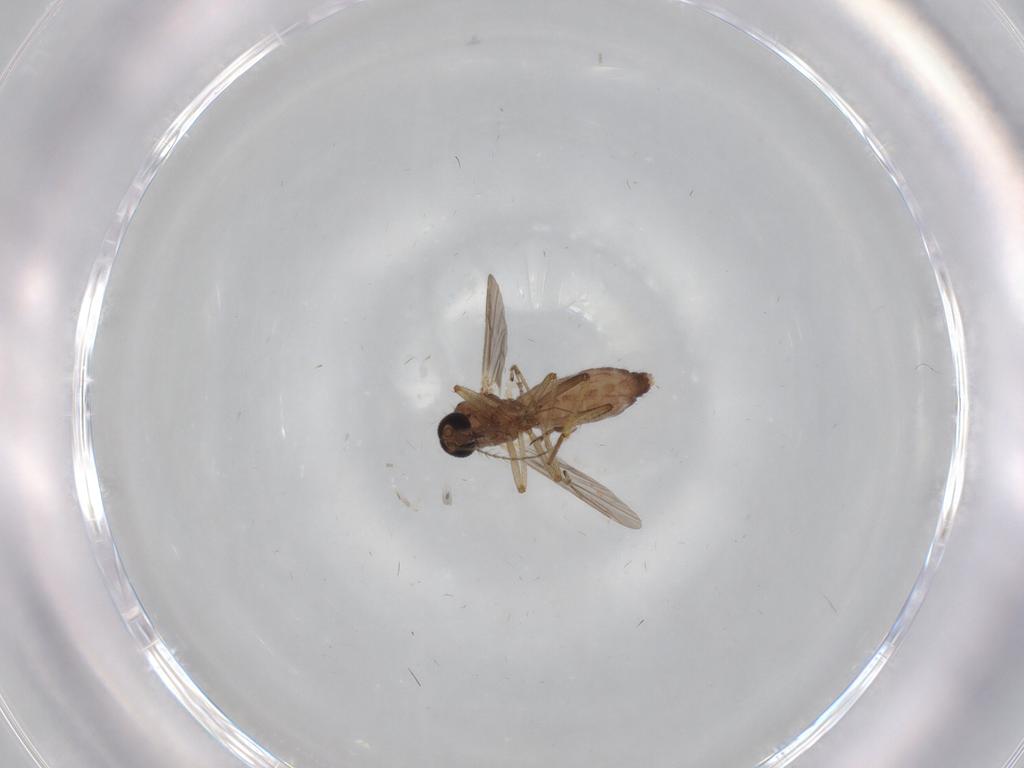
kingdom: Animalia
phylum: Arthropoda
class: Insecta
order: Diptera
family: Ceratopogonidae
